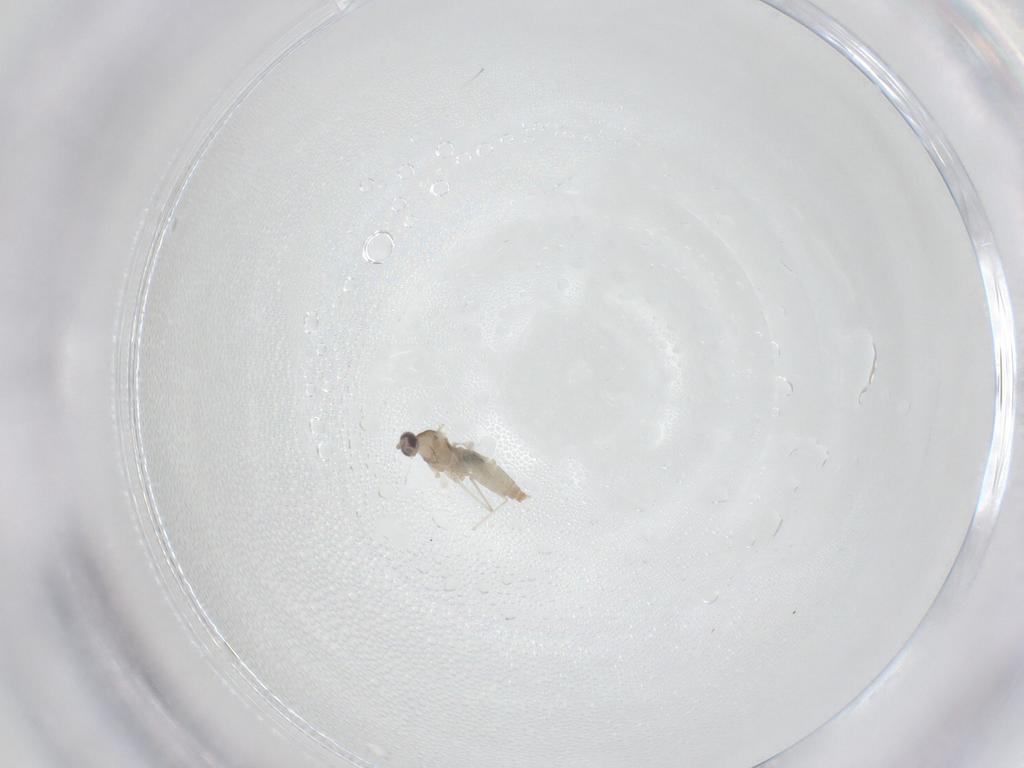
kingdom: Animalia
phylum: Arthropoda
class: Insecta
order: Diptera
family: Cecidomyiidae
